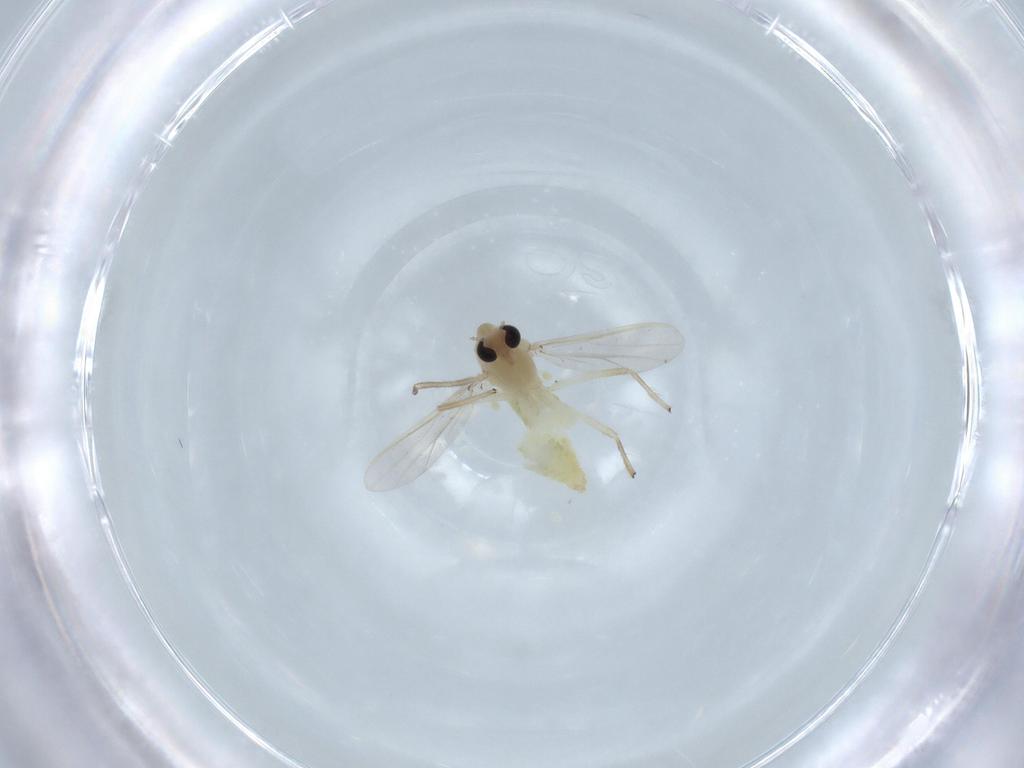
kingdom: Animalia
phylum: Arthropoda
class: Insecta
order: Diptera
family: Chironomidae
